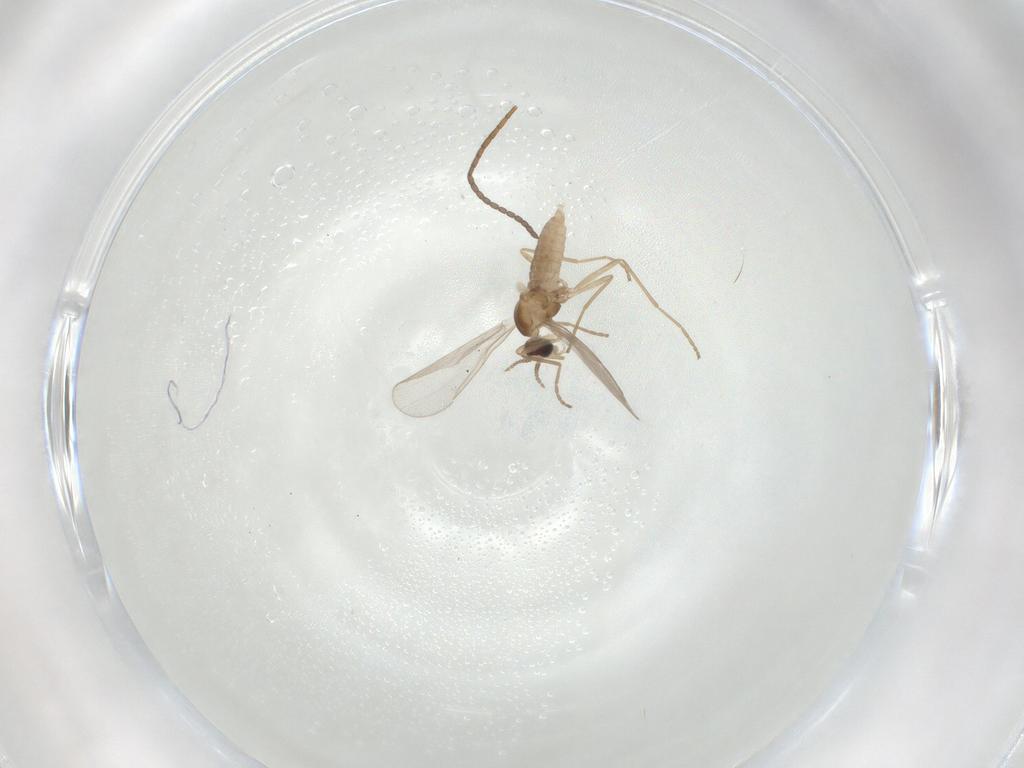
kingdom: Animalia
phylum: Arthropoda
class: Insecta
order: Diptera
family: Cecidomyiidae
